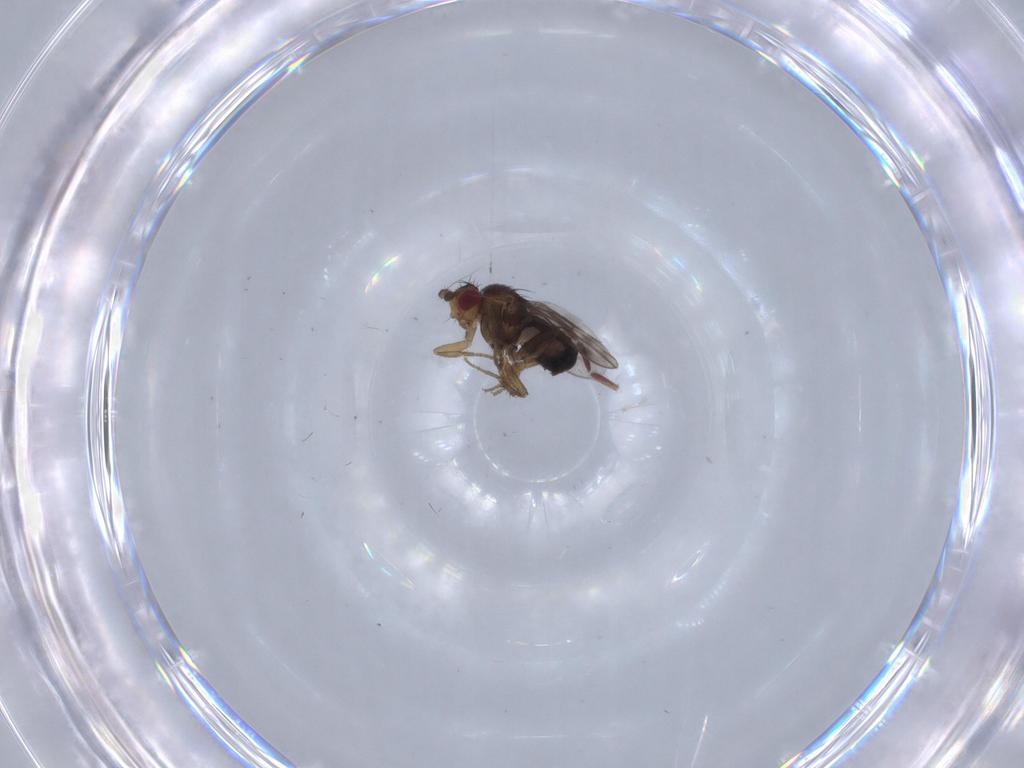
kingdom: Animalia
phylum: Arthropoda
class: Insecta
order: Diptera
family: Sphaeroceridae
